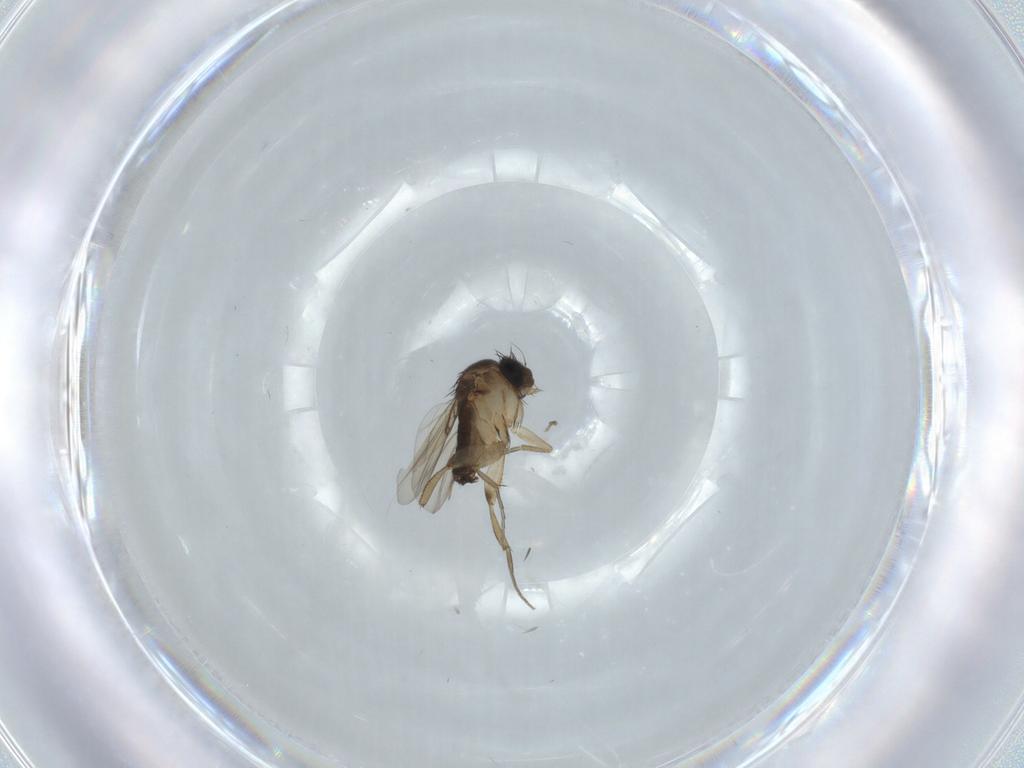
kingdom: Animalia
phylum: Arthropoda
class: Insecta
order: Diptera
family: Phoridae
